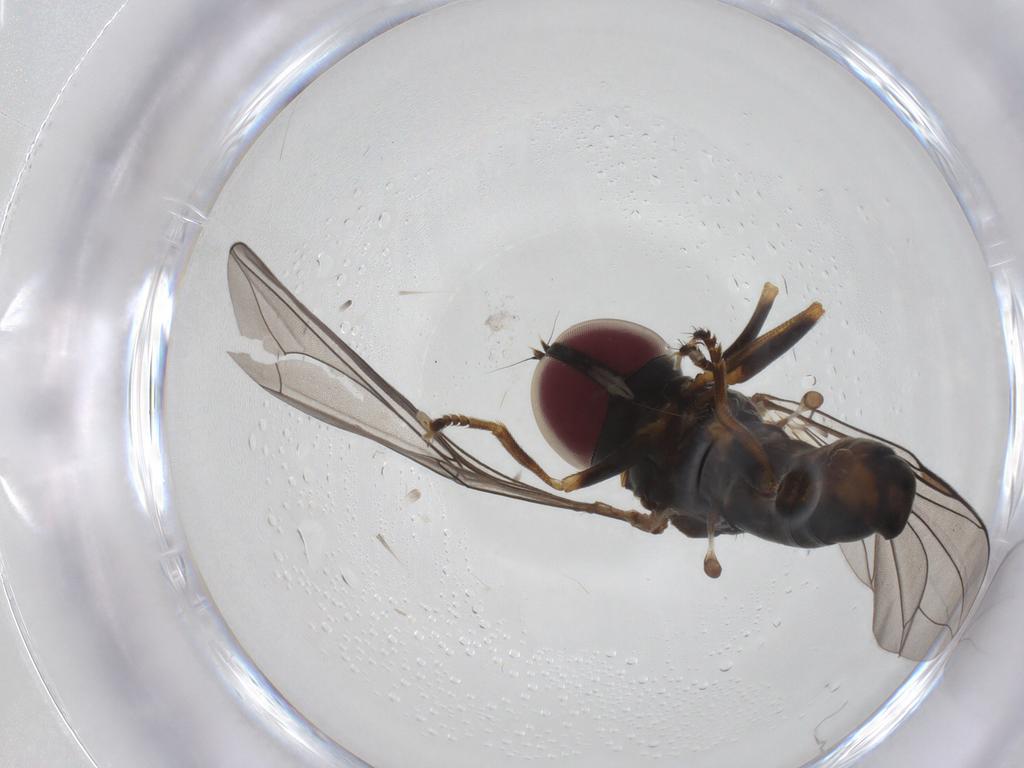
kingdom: Animalia
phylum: Arthropoda
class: Insecta
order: Diptera
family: Pipunculidae
